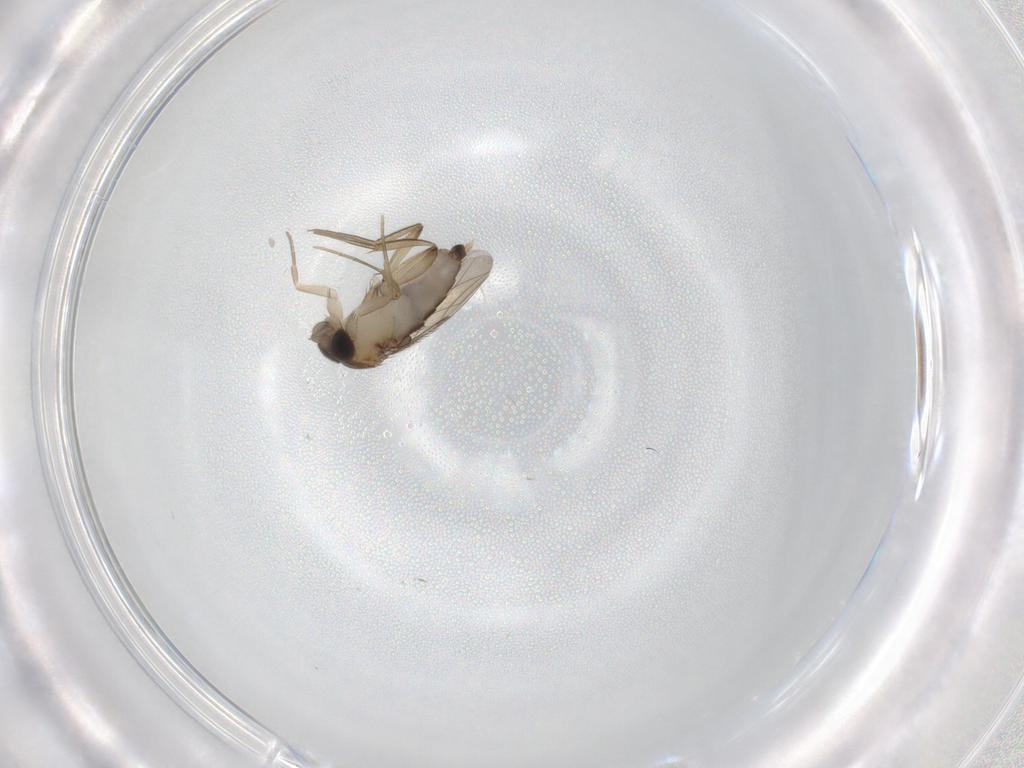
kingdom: Animalia
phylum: Arthropoda
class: Insecta
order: Diptera
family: Phoridae
